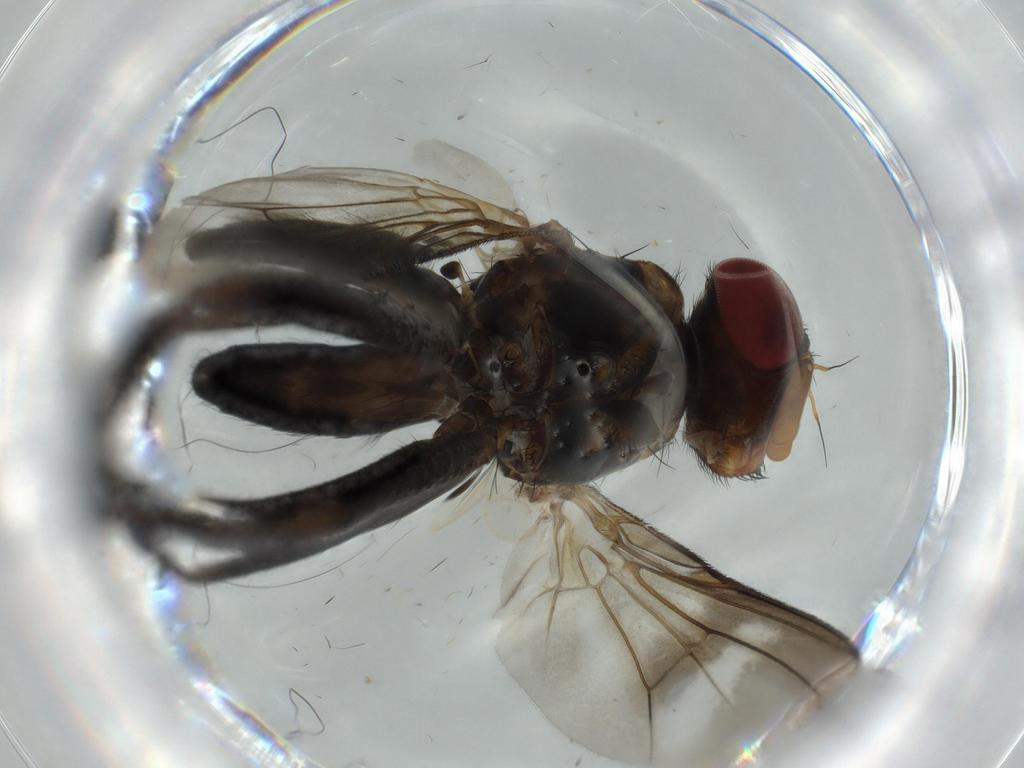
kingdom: Animalia
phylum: Arthropoda
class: Insecta
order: Diptera
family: Calliphoridae
